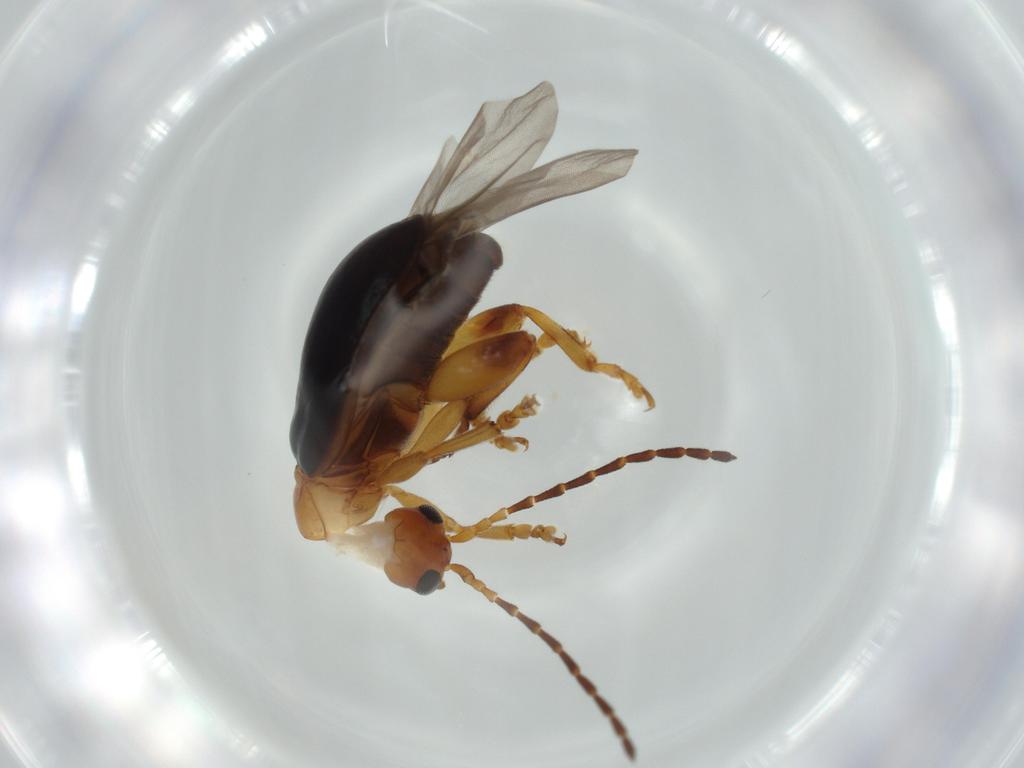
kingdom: Animalia
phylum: Arthropoda
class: Insecta
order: Coleoptera
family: Chrysomelidae
